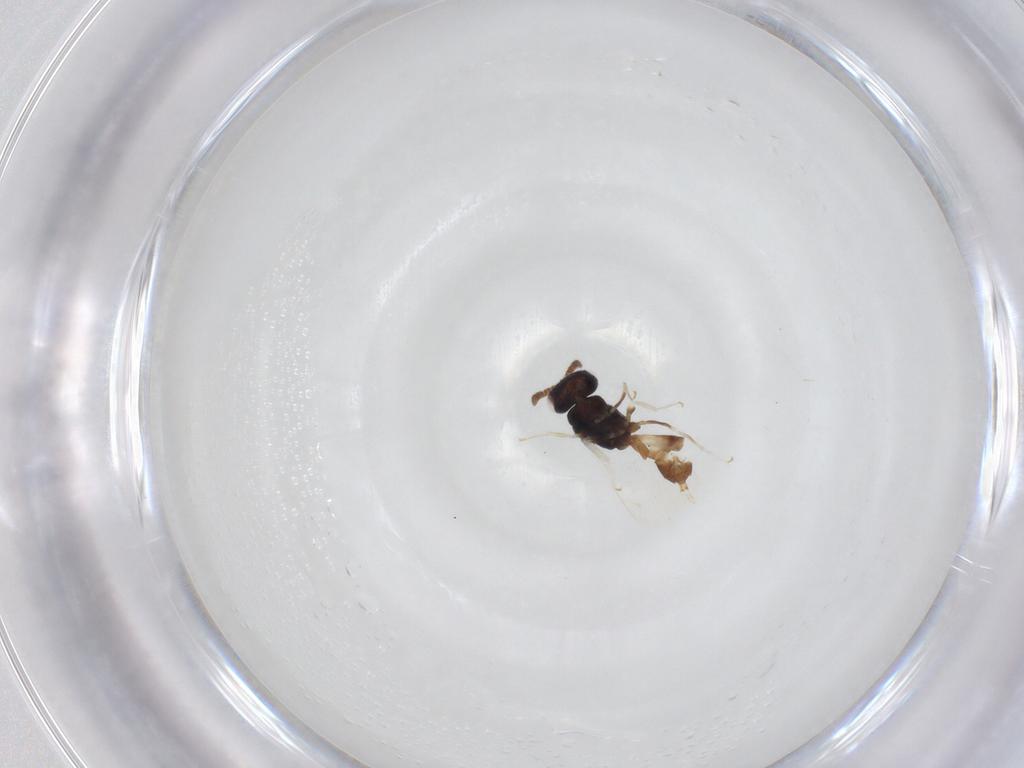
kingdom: Animalia
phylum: Arthropoda
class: Insecta
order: Hymenoptera
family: Pteromalidae
